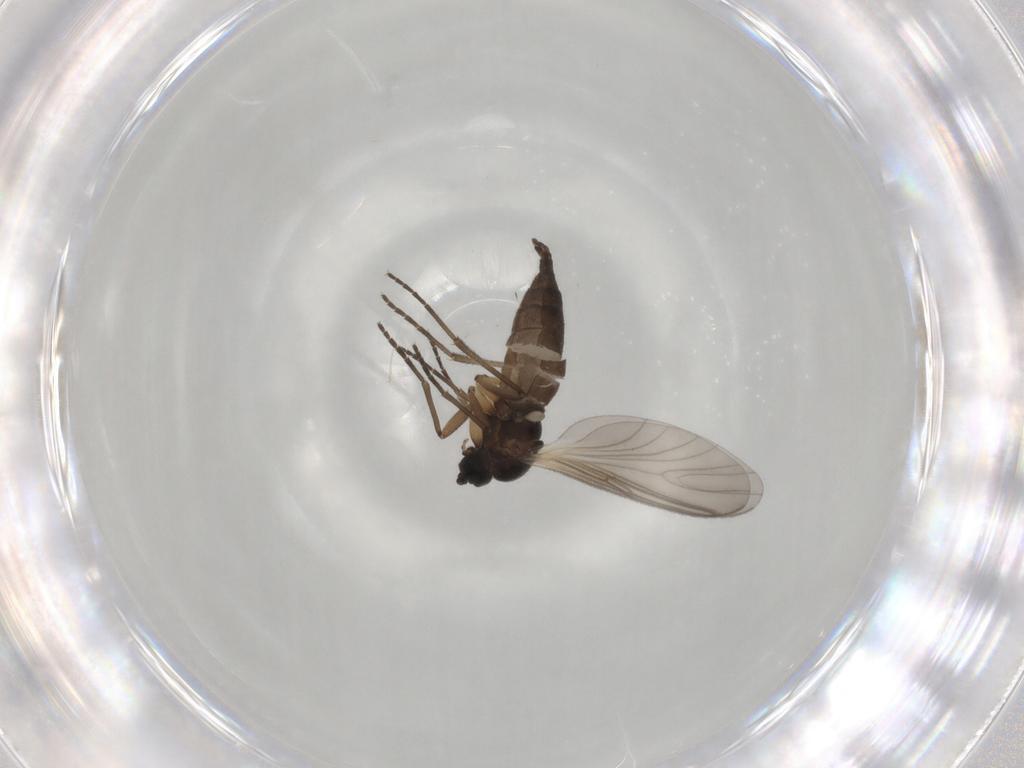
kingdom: Animalia
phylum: Arthropoda
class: Insecta
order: Diptera
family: Sciaridae
